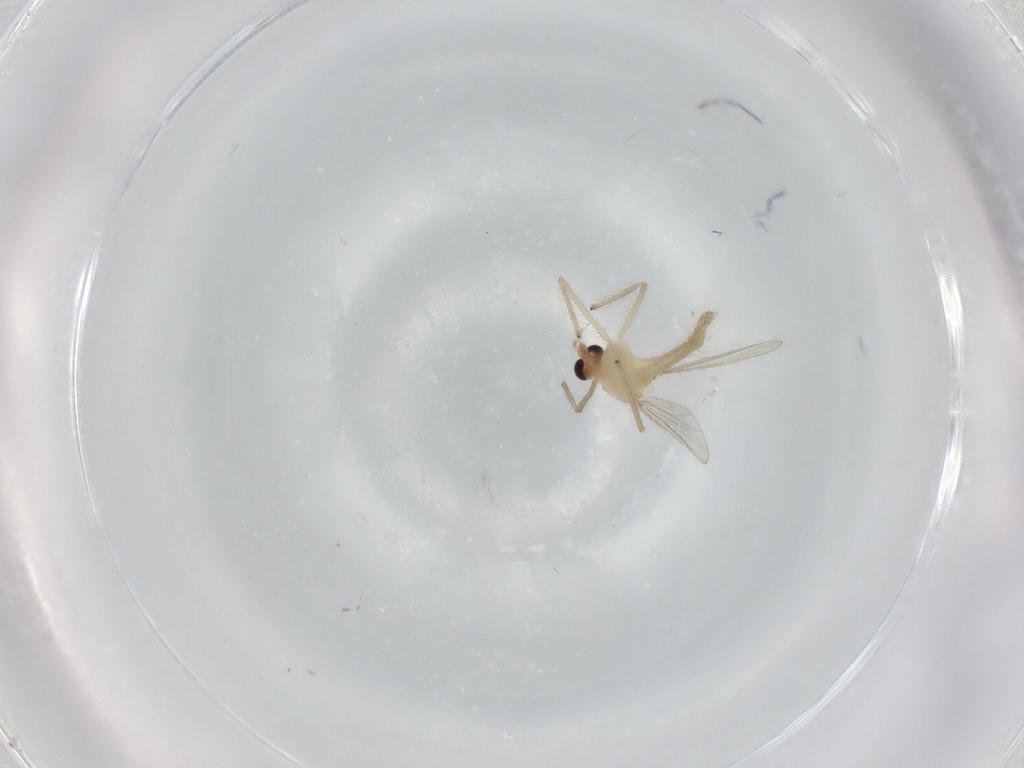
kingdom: Animalia
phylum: Arthropoda
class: Insecta
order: Diptera
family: Chironomidae
